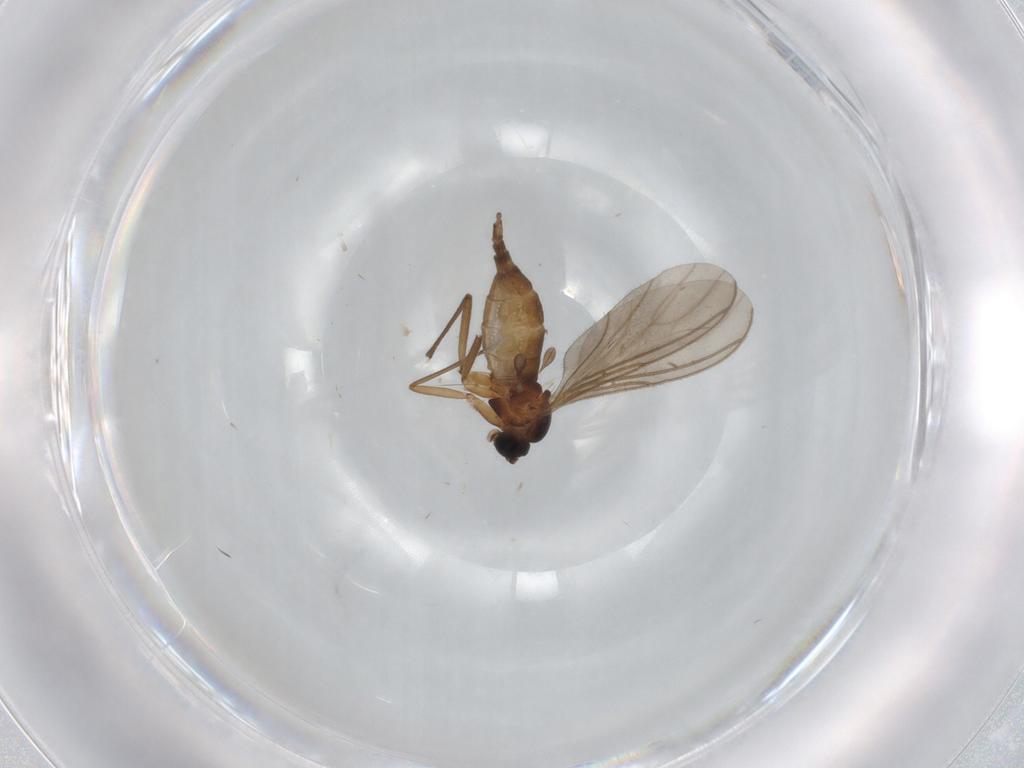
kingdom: Animalia
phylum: Arthropoda
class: Insecta
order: Diptera
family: Sciaridae
